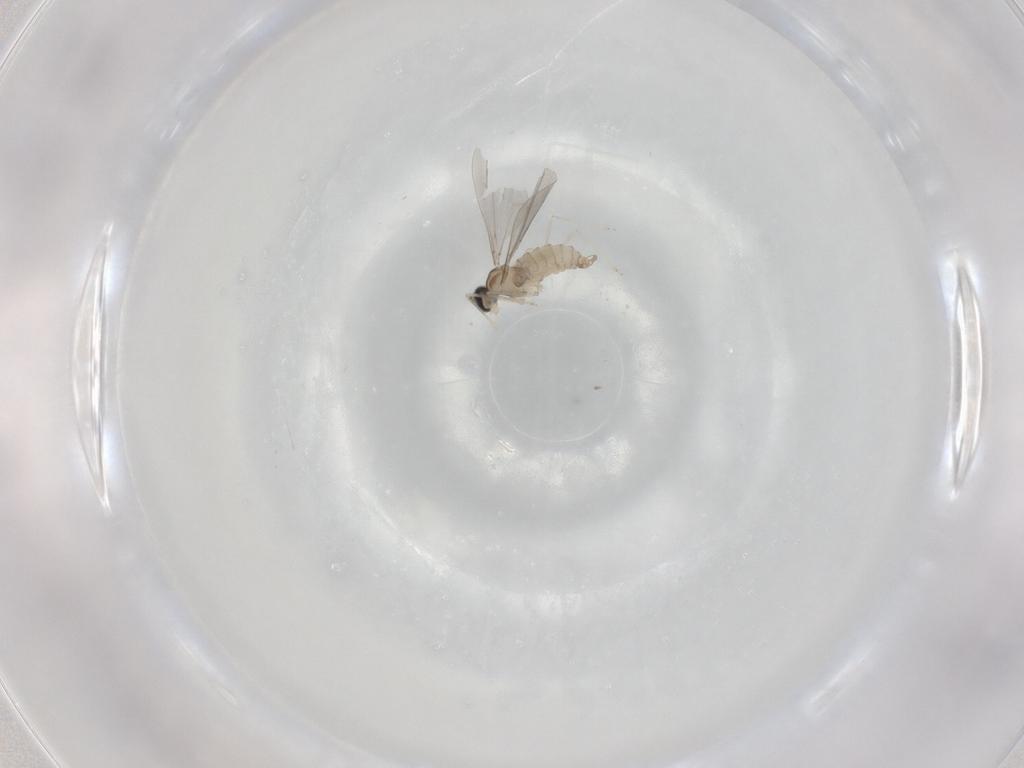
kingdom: Animalia
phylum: Arthropoda
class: Insecta
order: Diptera
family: Cecidomyiidae
